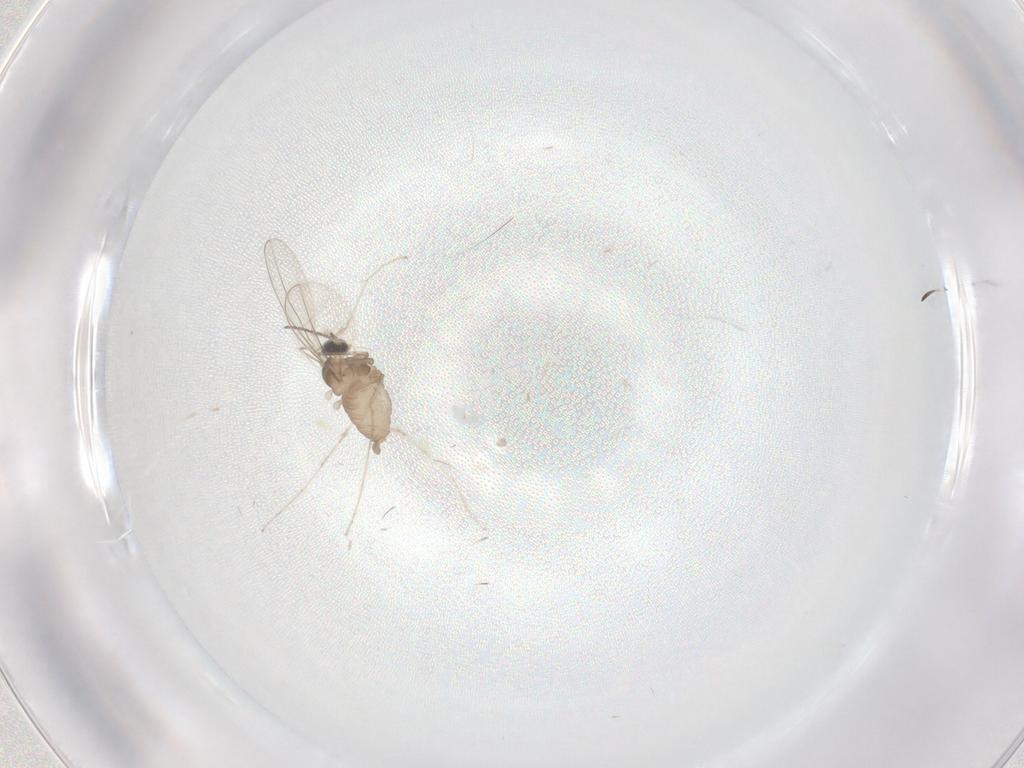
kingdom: Animalia
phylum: Arthropoda
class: Insecta
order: Diptera
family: Cecidomyiidae
